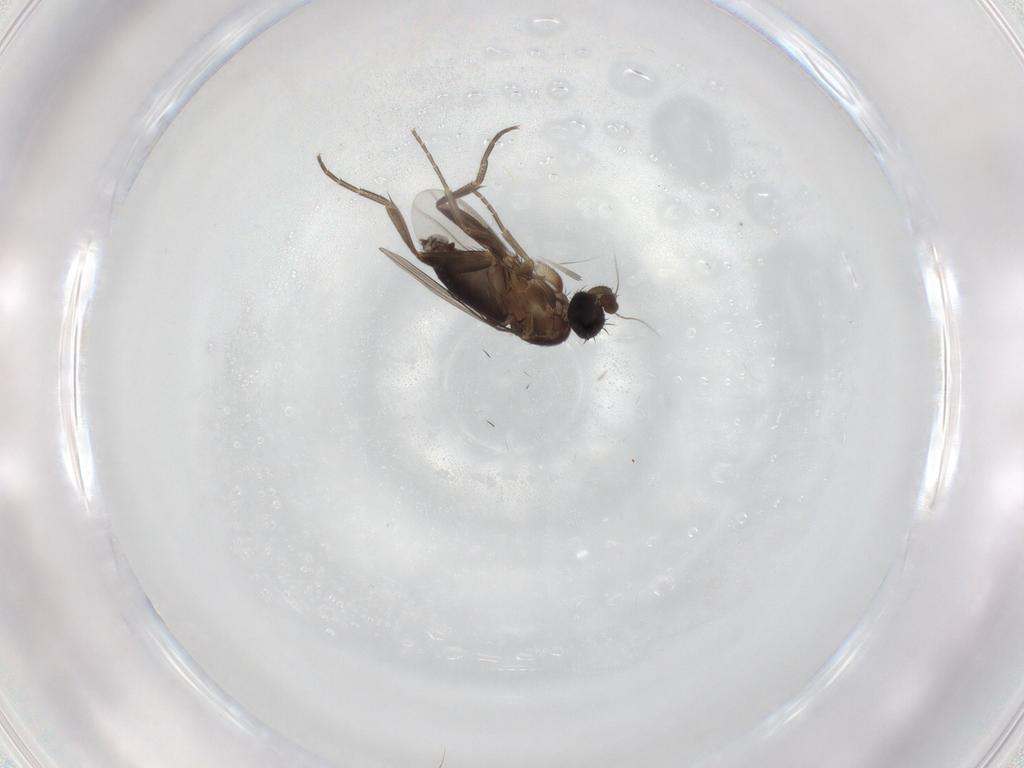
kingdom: Animalia
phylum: Arthropoda
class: Insecta
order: Diptera
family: Phoridae
